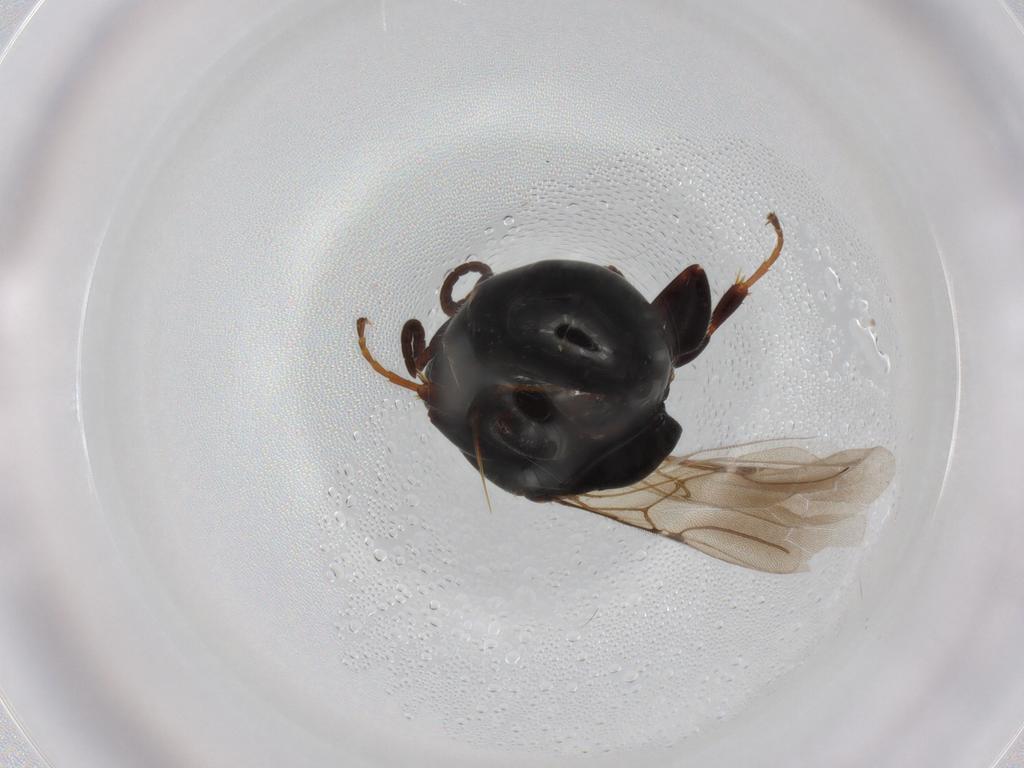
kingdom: Animalia
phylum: Arthropoda
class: Insecta
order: Hymenoptera
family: Bethylidae
